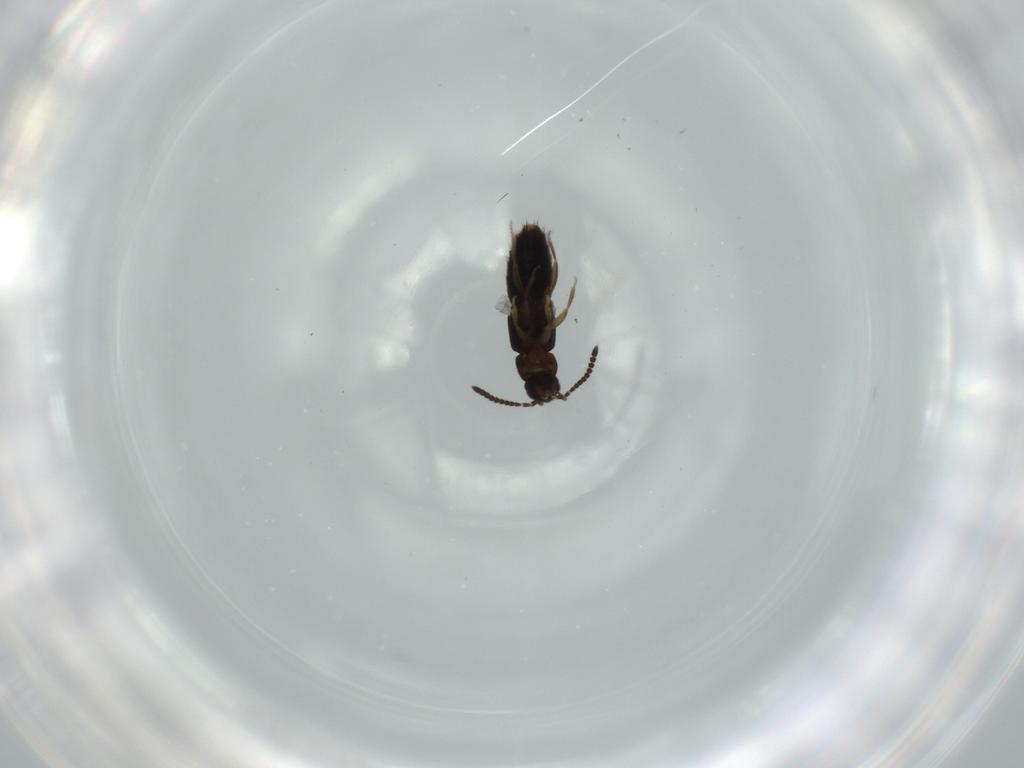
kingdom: Animalia
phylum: Arthropoda
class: Insecta
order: Coleoptera
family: Staphylinidae
